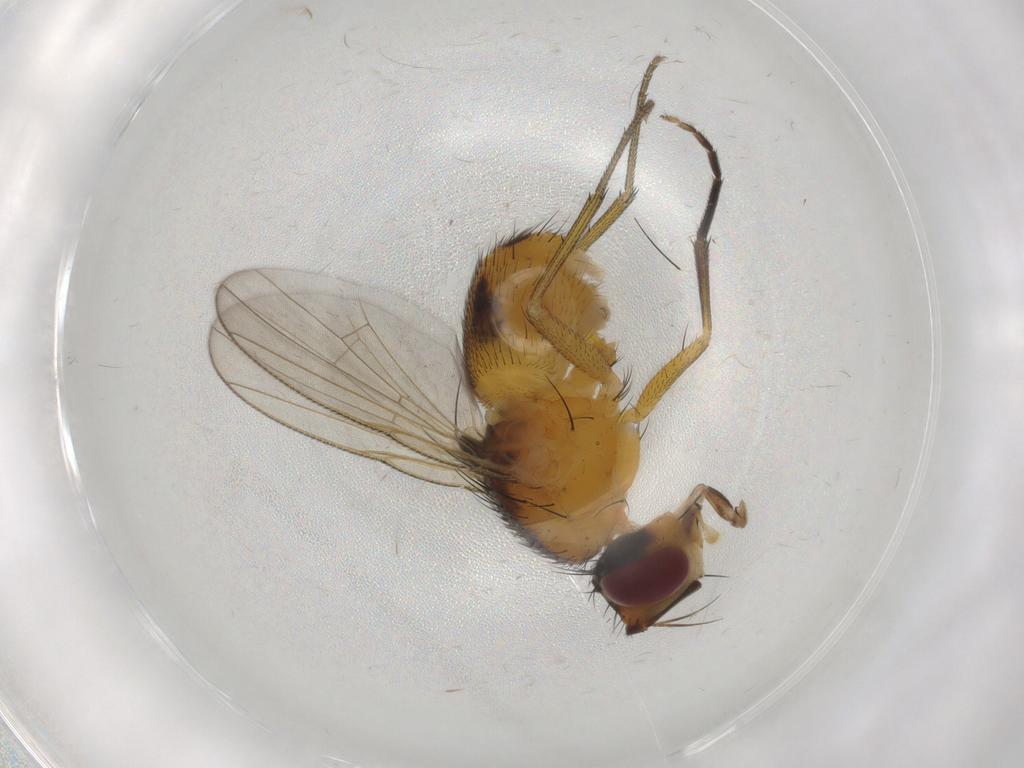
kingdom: Animalia
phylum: Arthropoda
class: Insecta
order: Diptera
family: Muscidae
